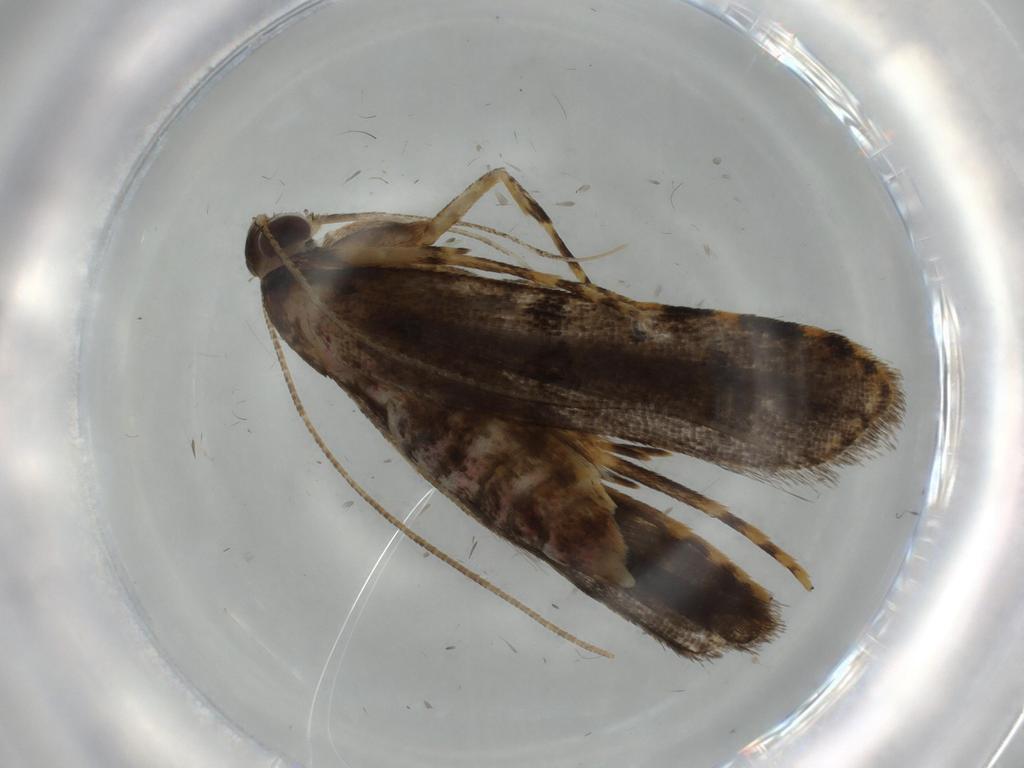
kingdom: Animalia
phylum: Arthropoda
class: Insecta
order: Lepidoptera
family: Autostichidae
